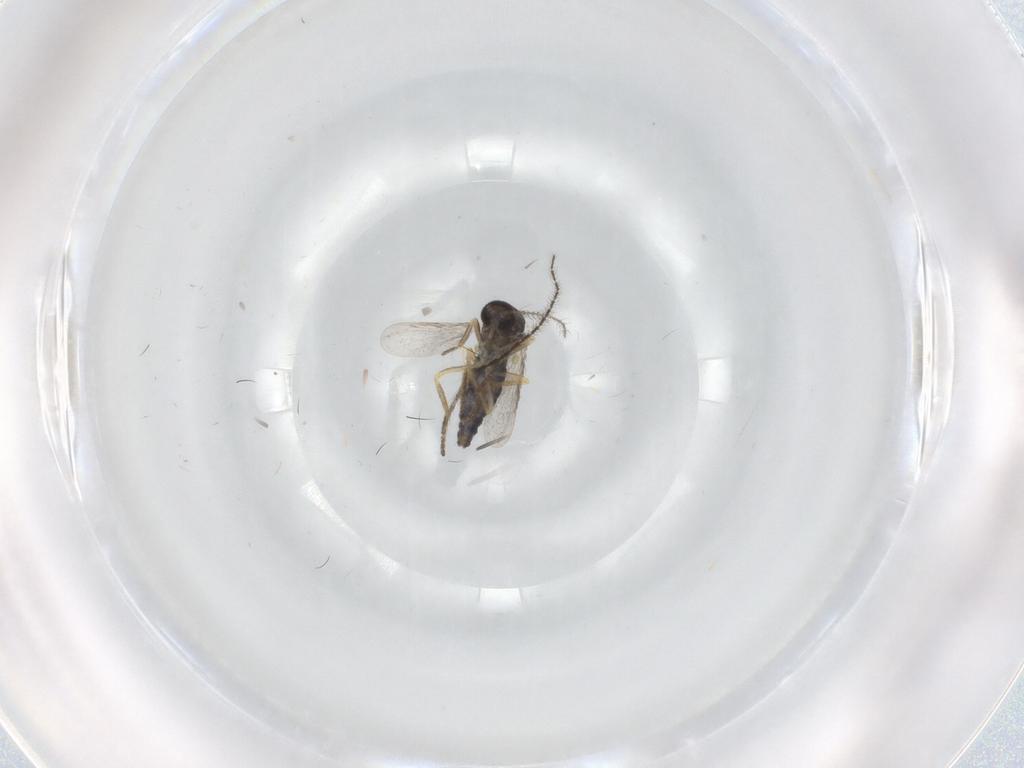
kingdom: Animalia
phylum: Arthropoda
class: Insecta
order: Diptera
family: Ceratopogonidae
